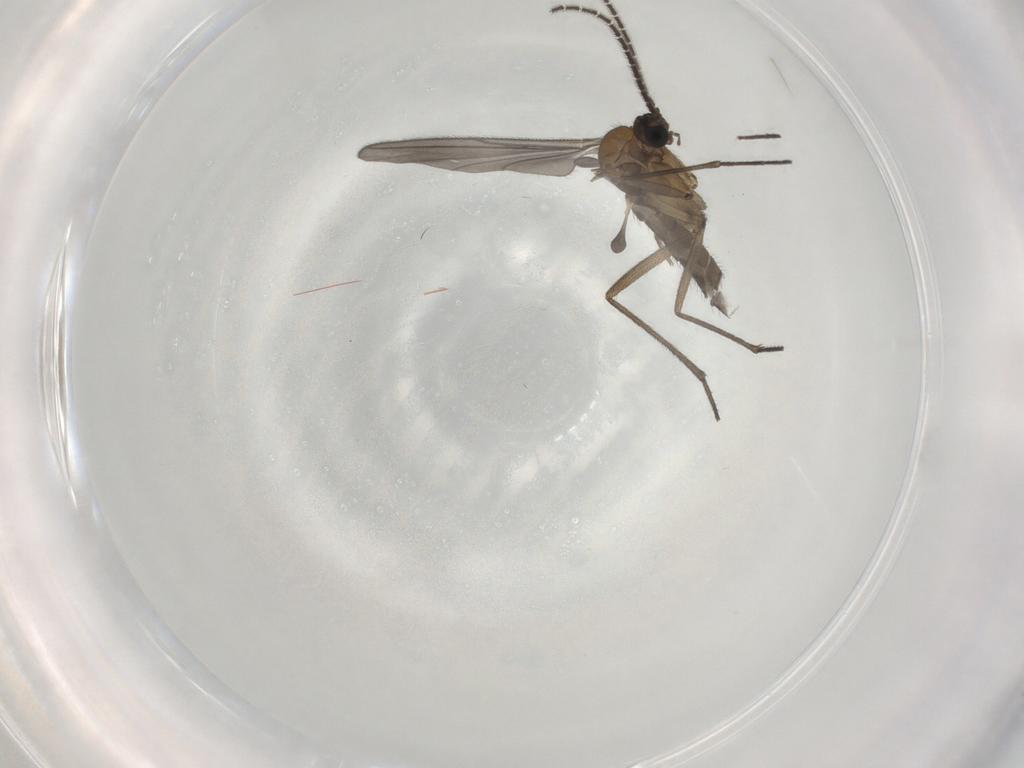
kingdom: Animalia
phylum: Arthropoda
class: Insecta
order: Diptera
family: Sciaridae
